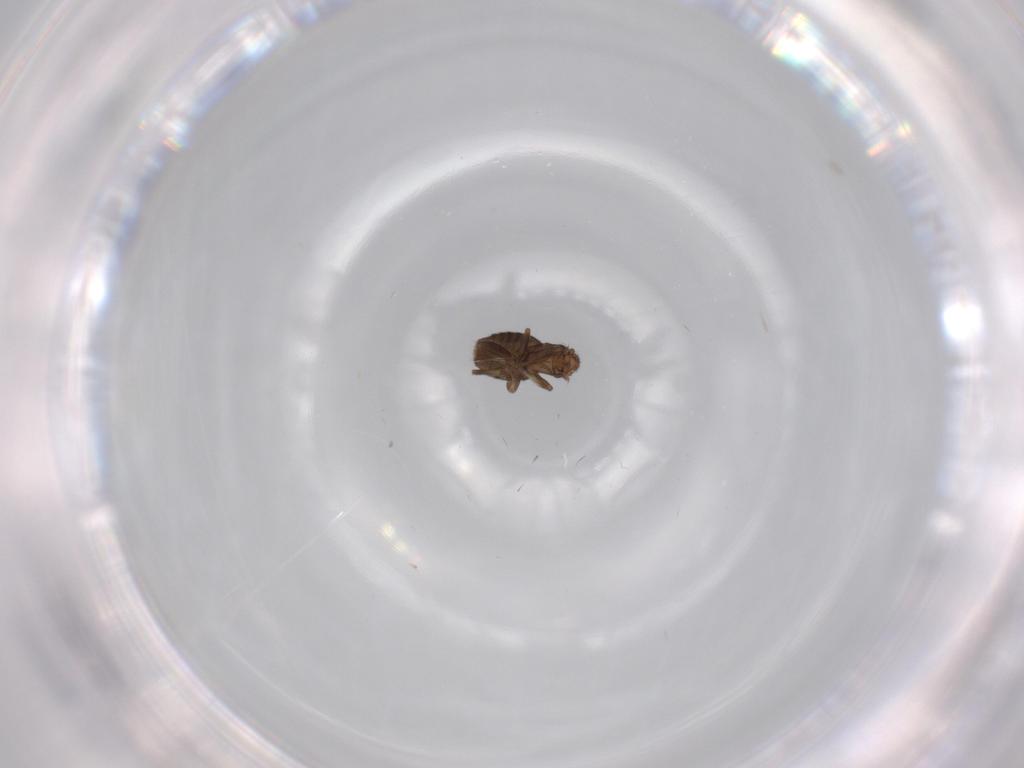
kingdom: Animalia
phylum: Arthropoda
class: Insecta
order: Diptera
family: Phoridae
